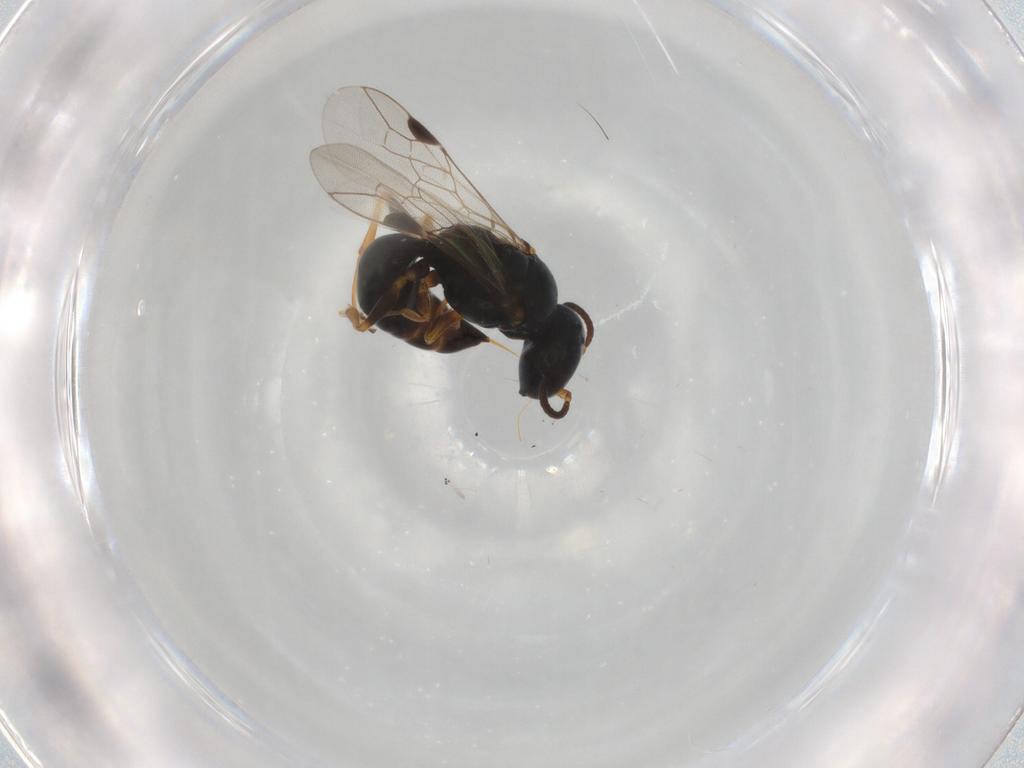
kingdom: Animalia
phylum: Arthropoda
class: Insecta
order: Hymenoptera
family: Crabronidae
